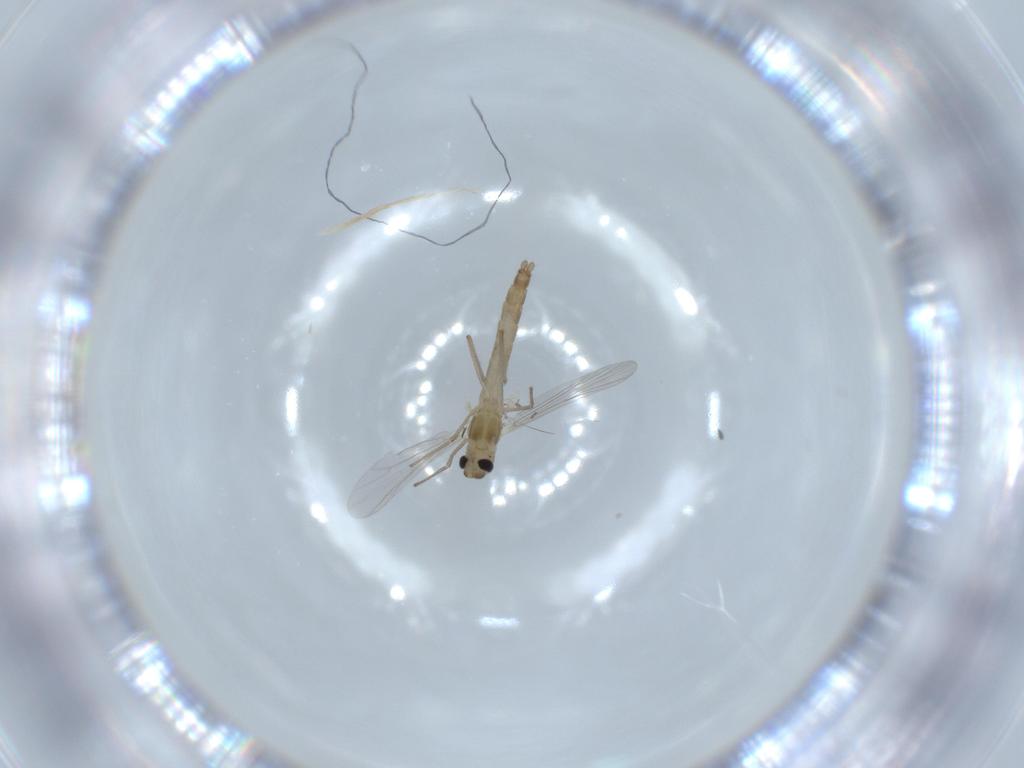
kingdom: Animalia
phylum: Arthropoda
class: Insecta
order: Diptera
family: Chironomidae
